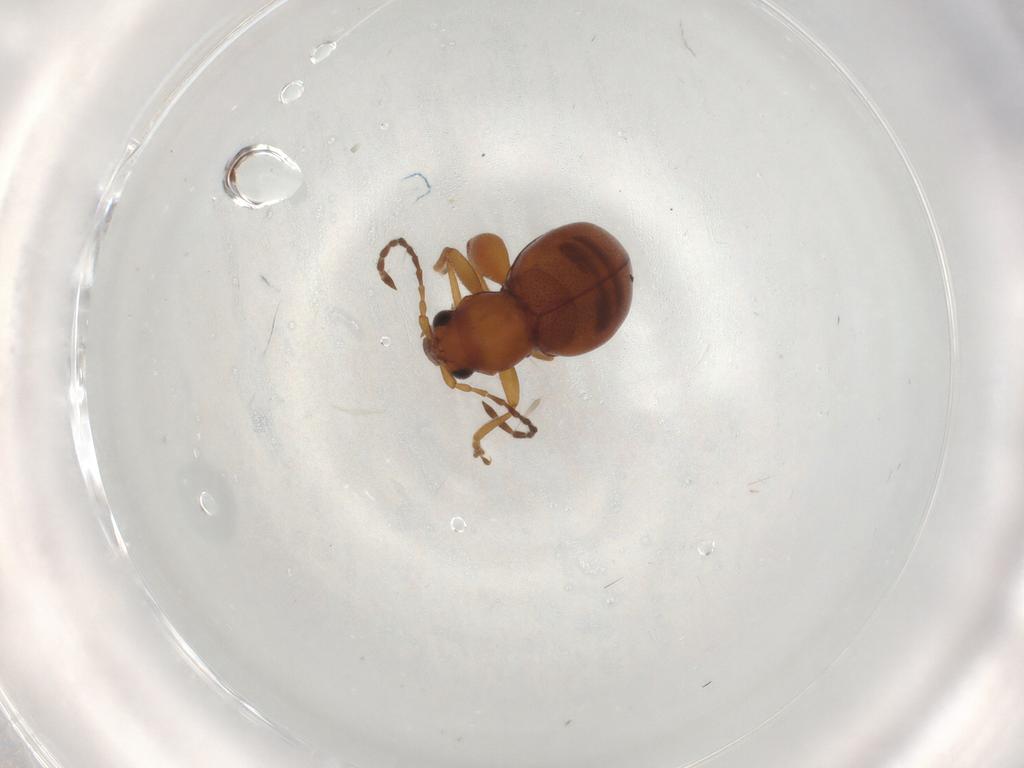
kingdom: Animalia
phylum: Arthropoda
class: Insecta
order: Coleoptera
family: Chrysomelidae
